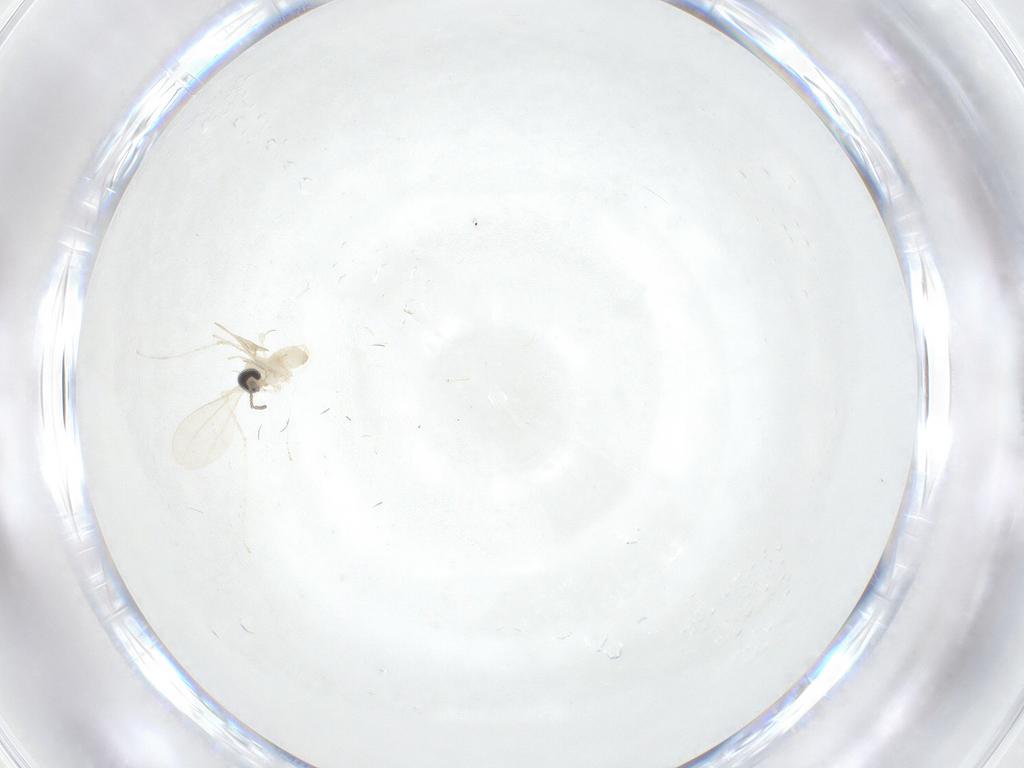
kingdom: Animalia
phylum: Arthropoda
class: Insecta
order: Diptera
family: Cecidomyiidae
